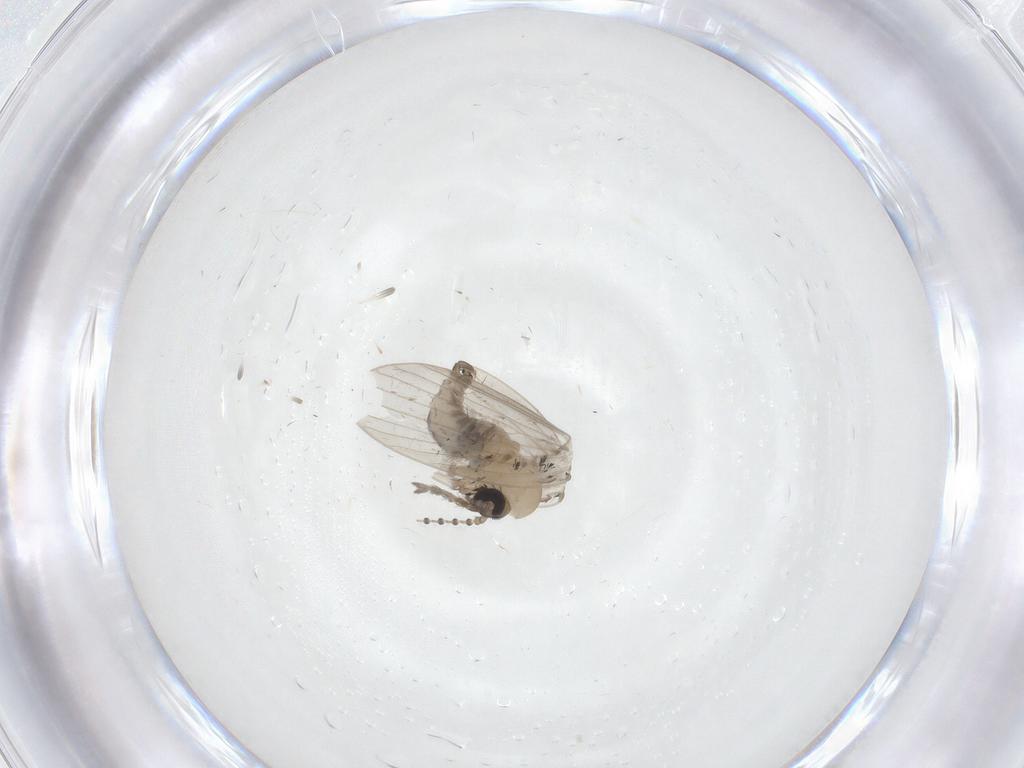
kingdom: Animalia
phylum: Arthropoda
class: Insecta
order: Diptera
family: Psychodidae
